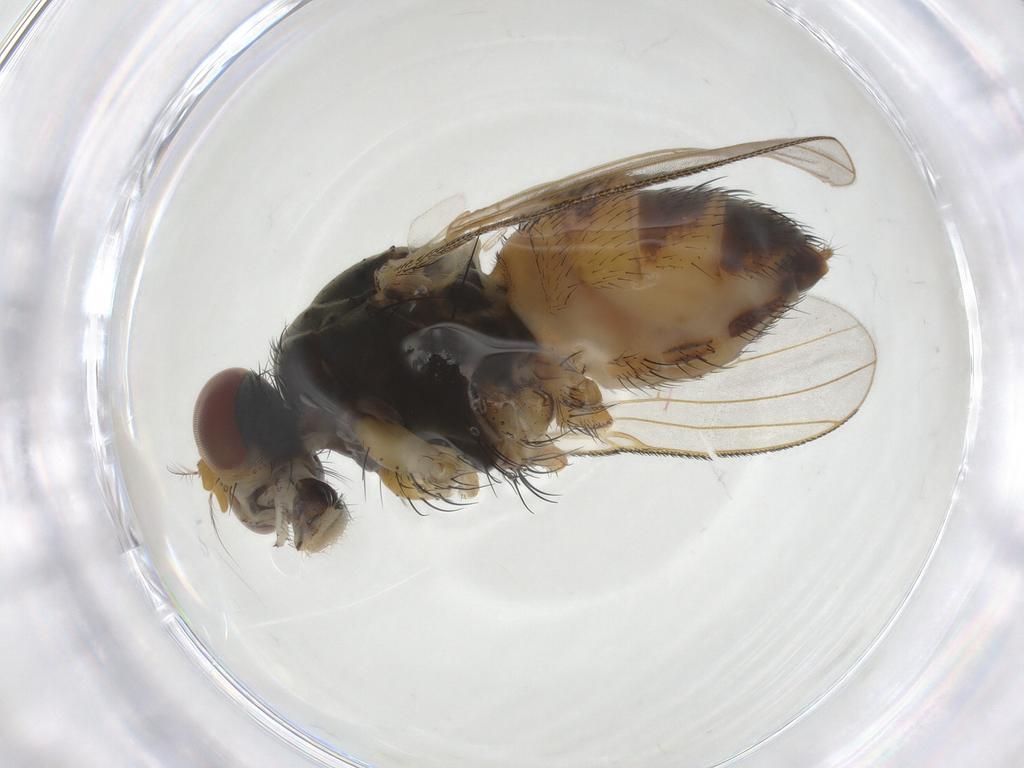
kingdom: Animalia
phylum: Arthropoda
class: Insecta
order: Diptera
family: Muscidae
